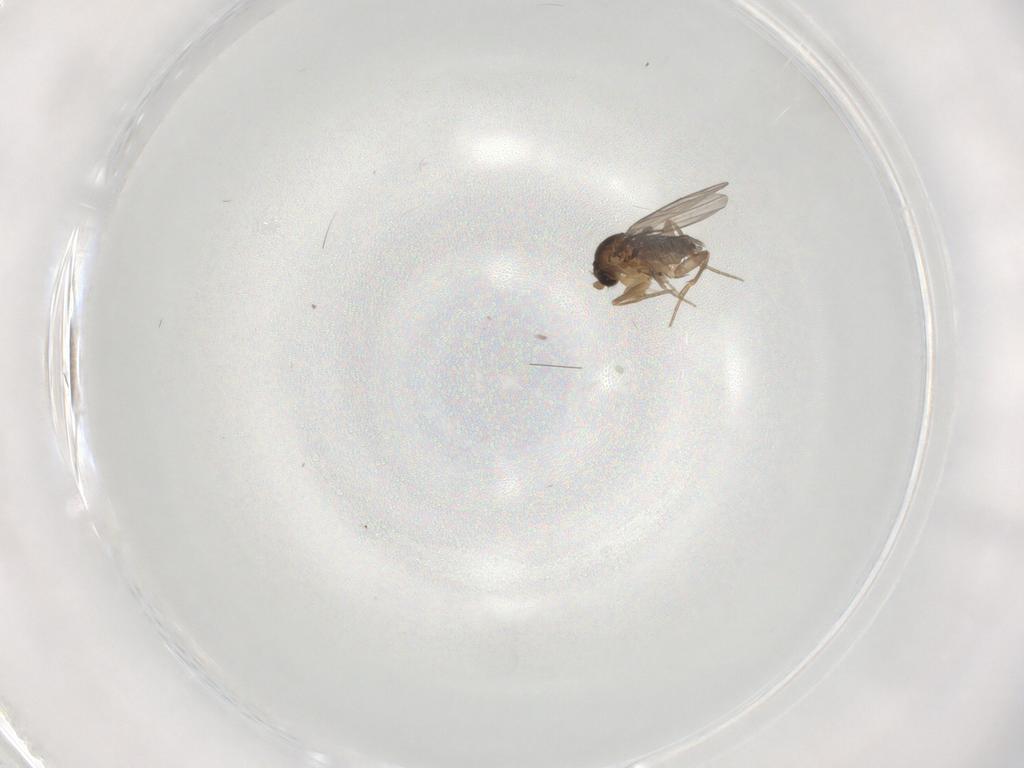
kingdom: Animalia
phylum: Arthropoda
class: Insecta
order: Diptera
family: Milichiidae
